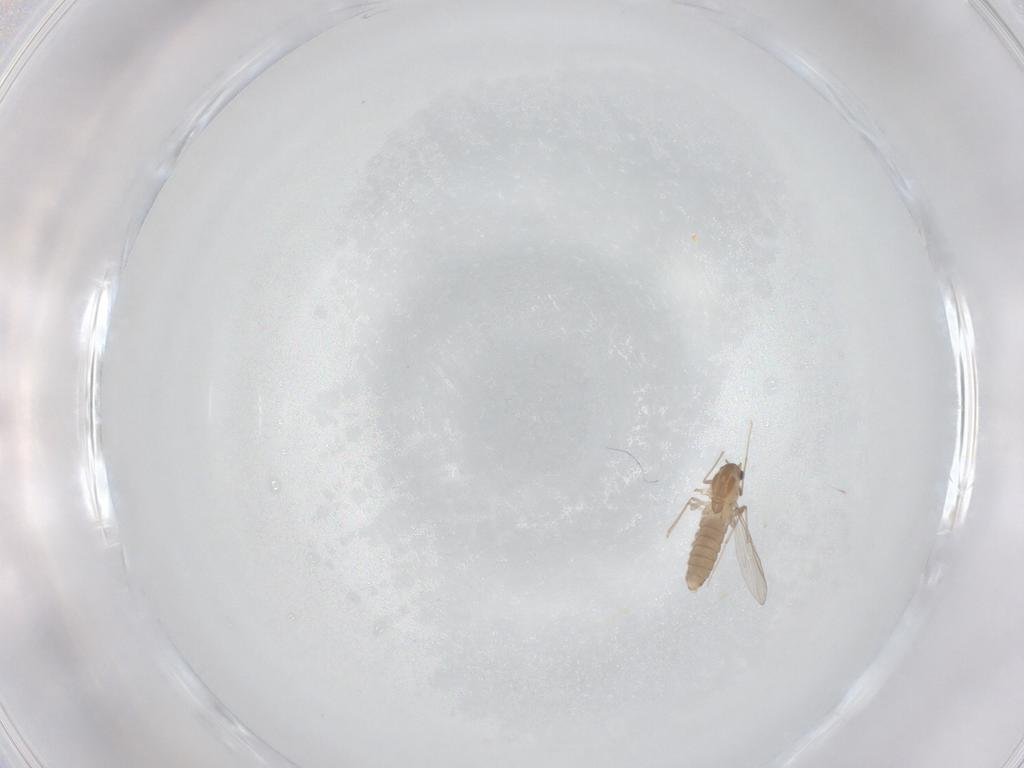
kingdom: Animalia
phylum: Arthropoda
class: Insecta
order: Diptera
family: Chironomidae
